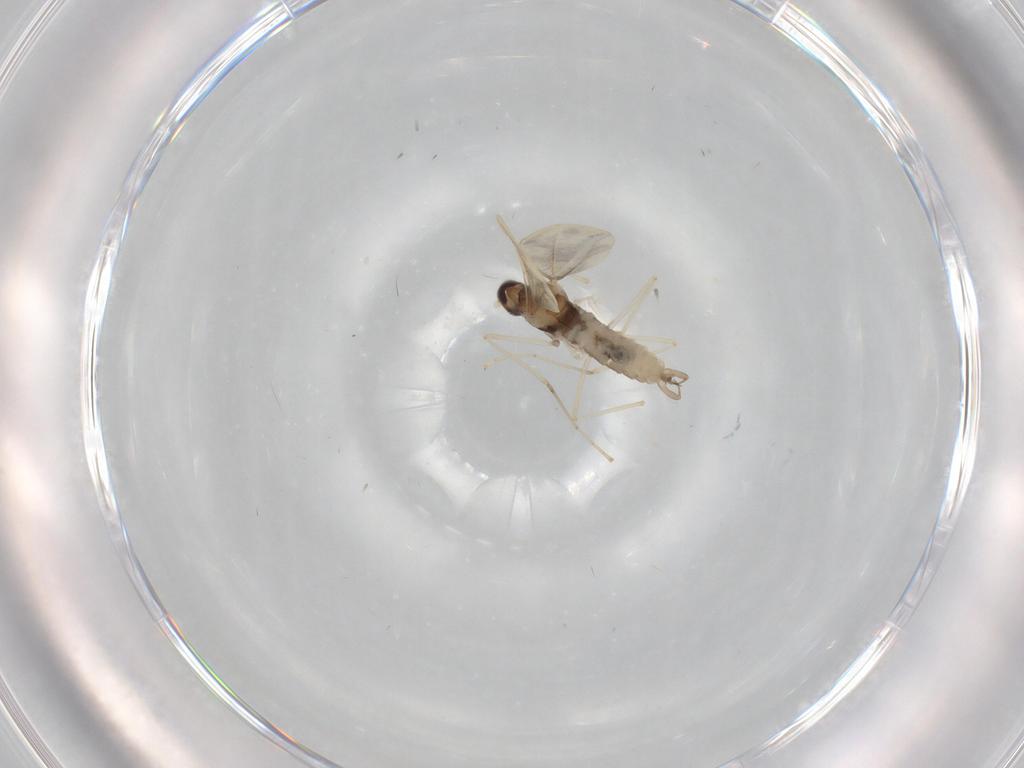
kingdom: Animalia
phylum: Arthropoda
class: Insecta
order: Diptera
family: Cecidomyiidae
